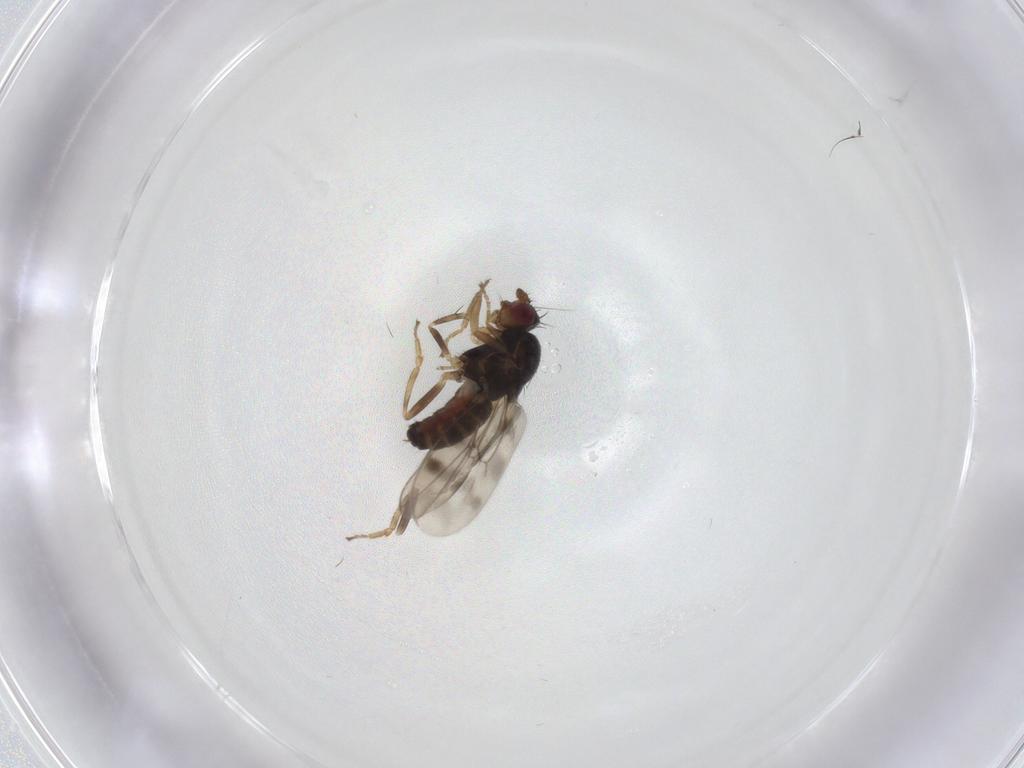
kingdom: Animalia
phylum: Arthropoda
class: Insecta
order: Diptera
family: Sphaeroceridae
